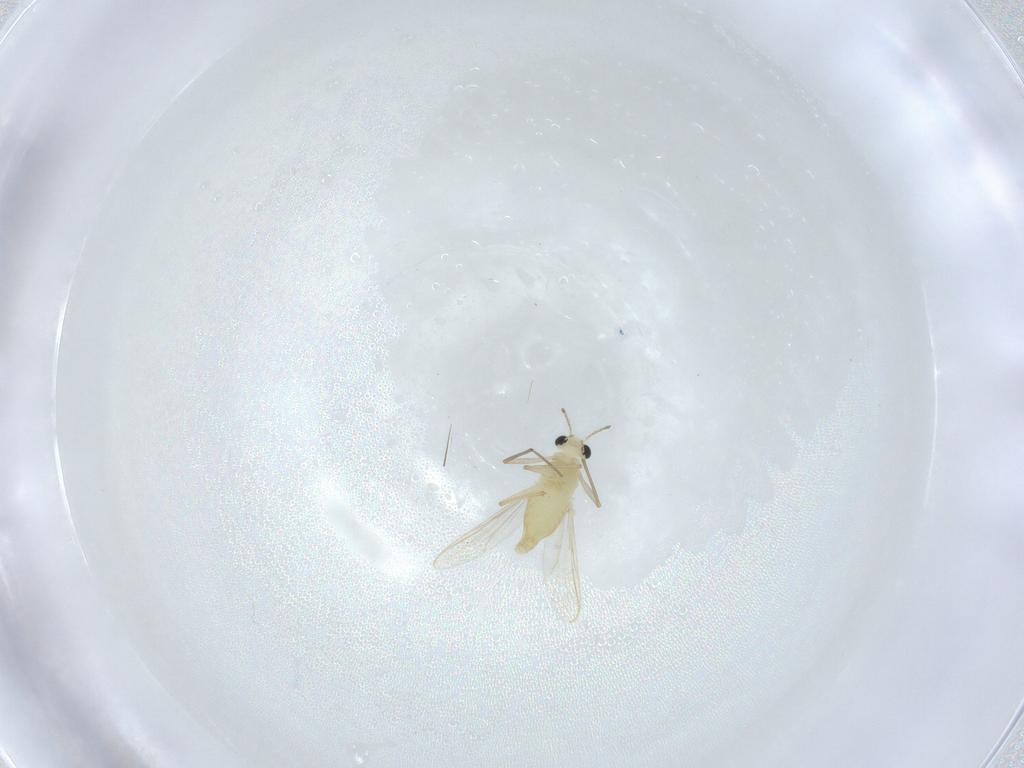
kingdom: Animalia
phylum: Arthropoda
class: Insecta
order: Diptera
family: Chironomidae
